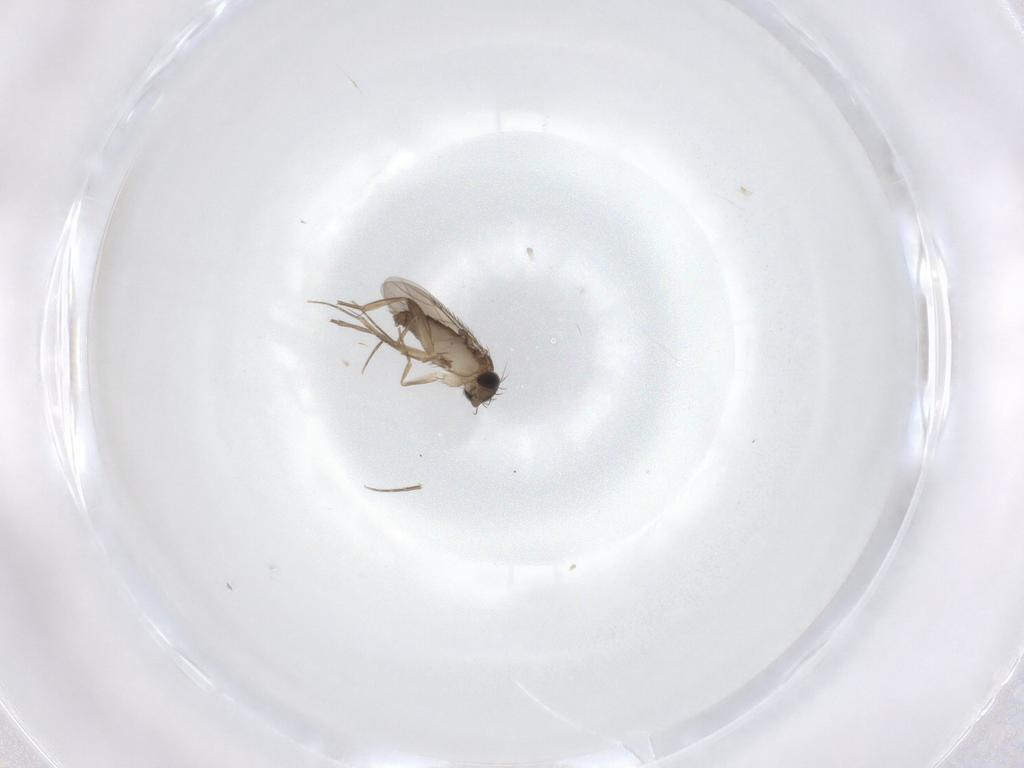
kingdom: Animalia
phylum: Arthropoda
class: Insecta
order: Diptera
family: Phoridae
